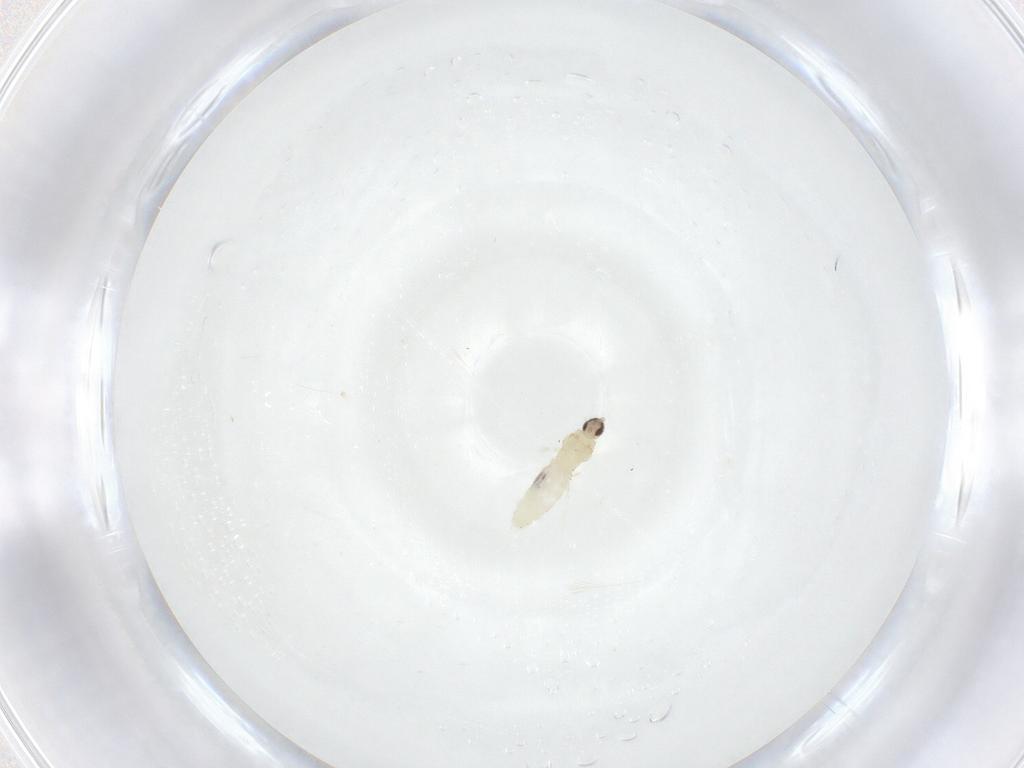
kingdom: Animalia
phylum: Arthropoda
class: Insecta
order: Diptera
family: Cecidomyiidae
